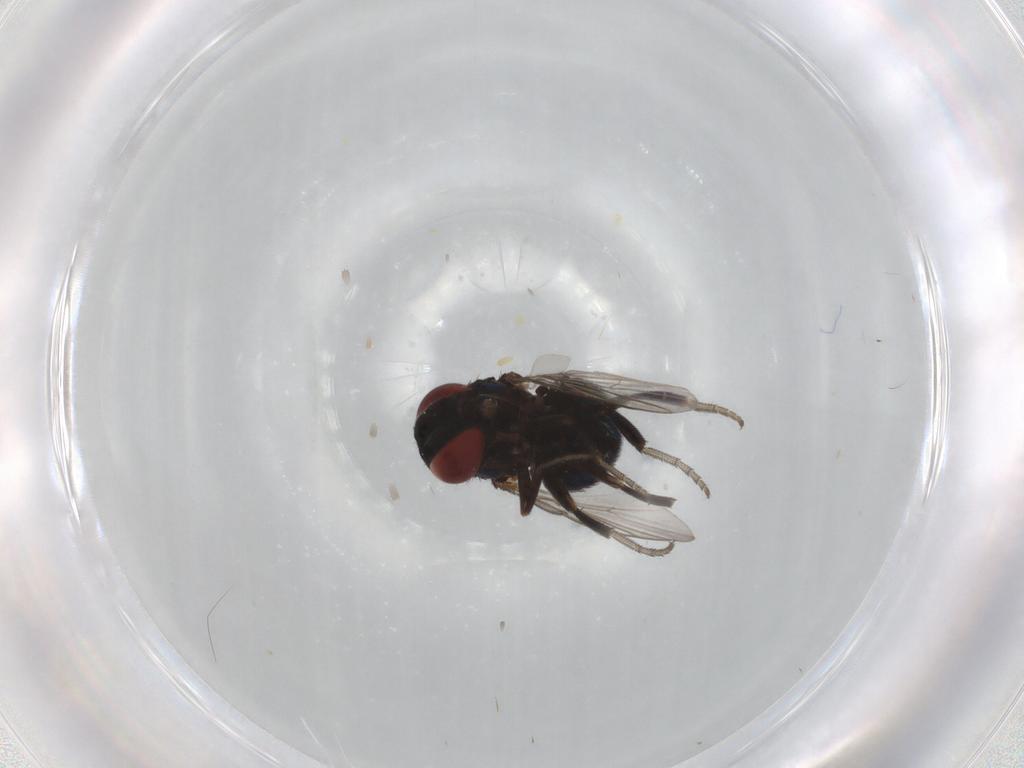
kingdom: Animalia
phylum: Arthropoda
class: Insecta
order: Diptera
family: Cryptochetidae
